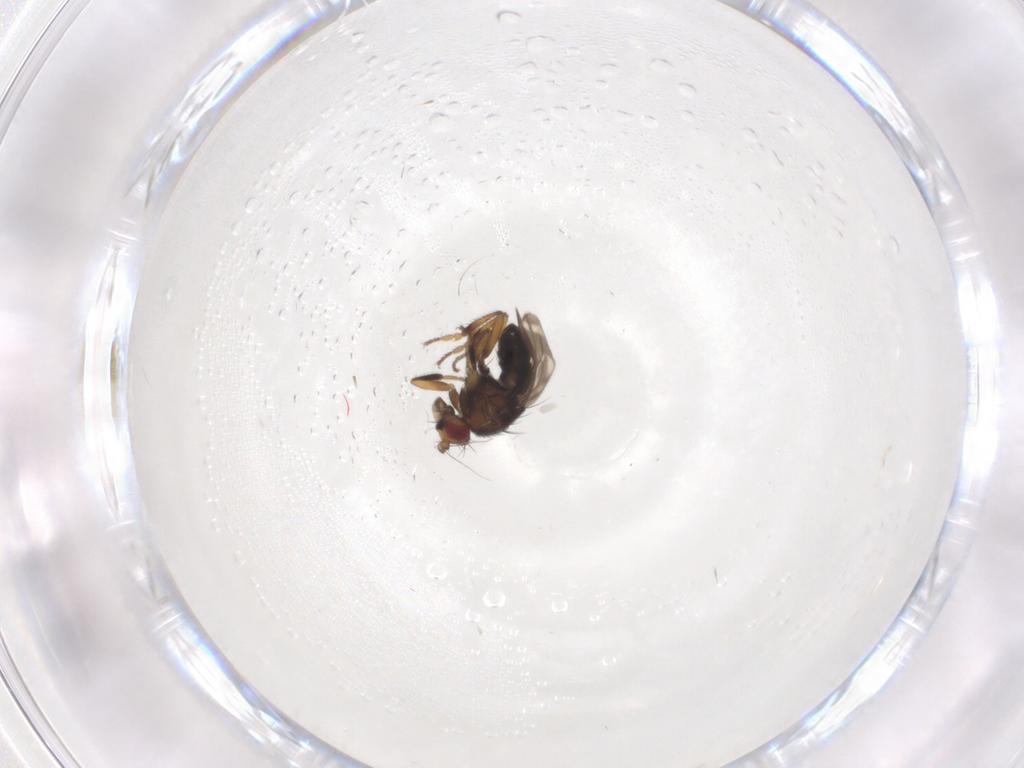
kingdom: Animalia
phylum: Arthropoda
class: Insecta
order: Diptera
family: Sphaeroceridae
